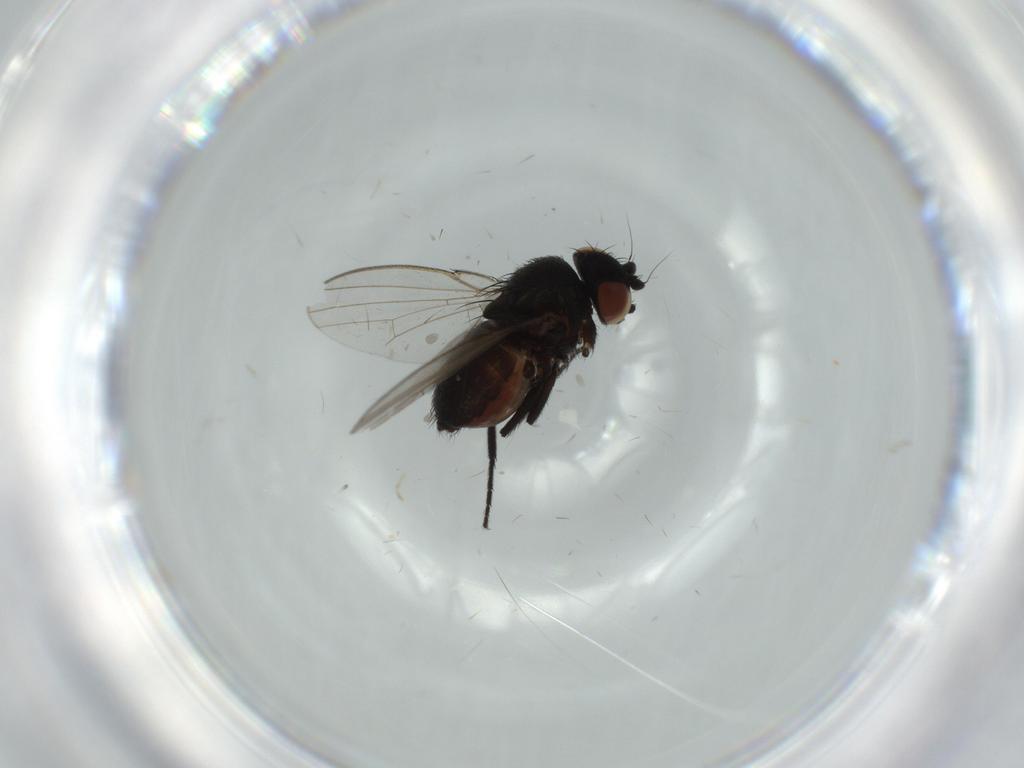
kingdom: Animalia
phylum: Arthropoda
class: Insecta
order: Diptera
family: Milichiidae
